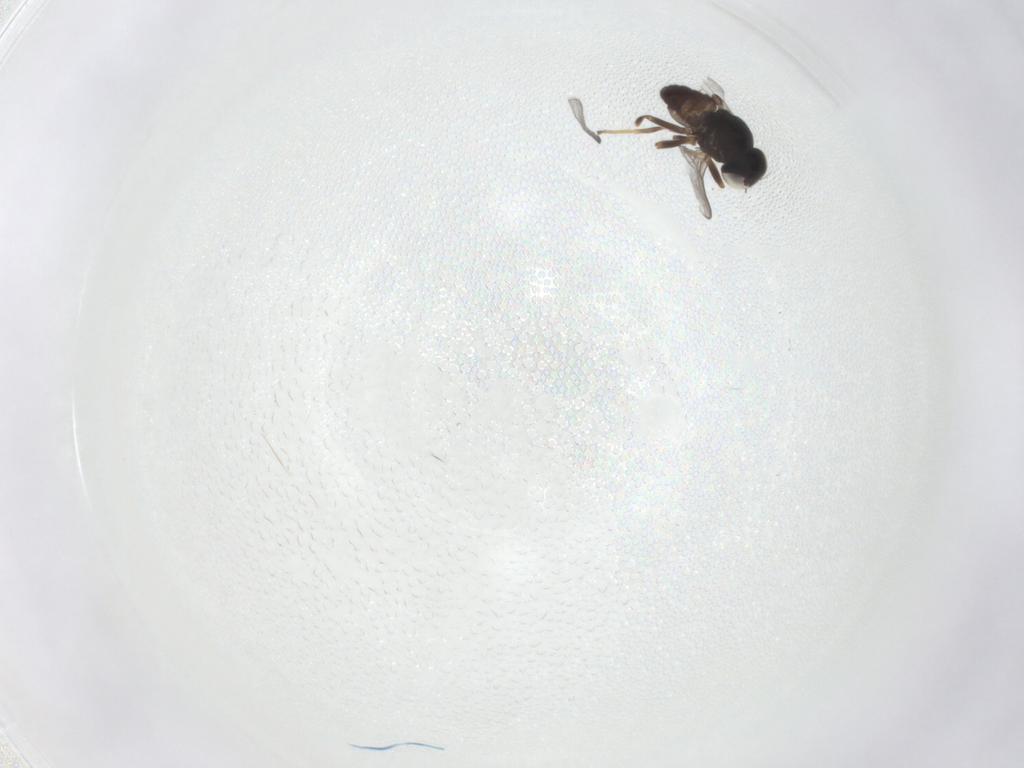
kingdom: Animalia
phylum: Arthropoda
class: Insecta
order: Diptera
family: Chloropidae
